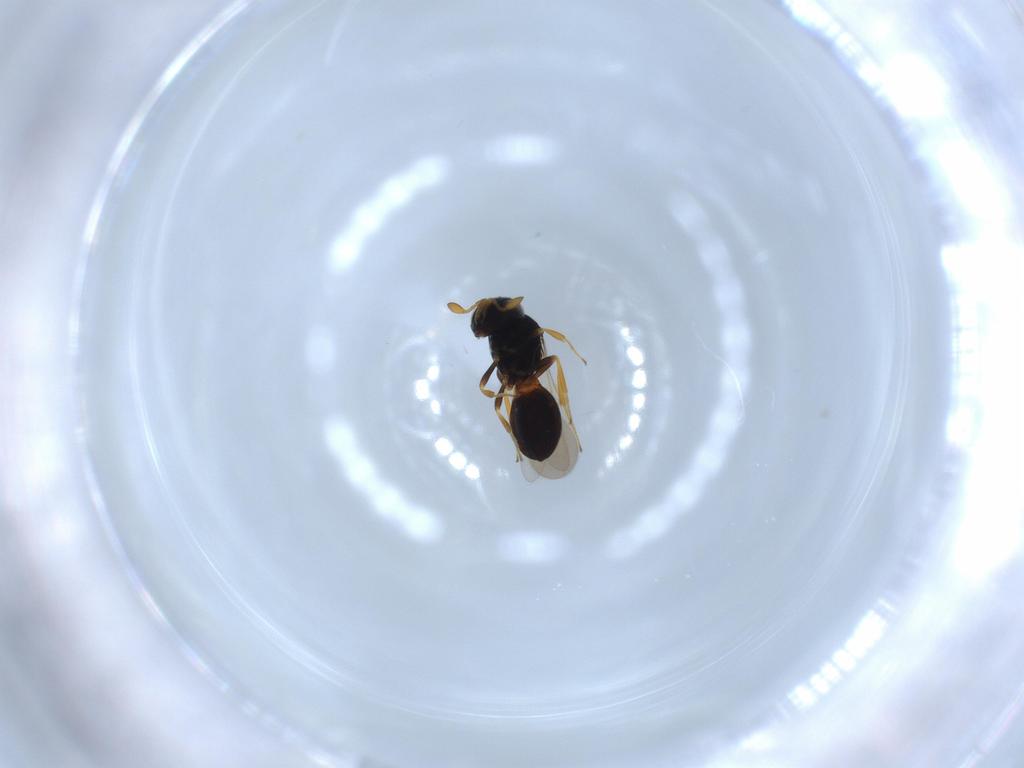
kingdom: Animalia
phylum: Arthropoda
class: Insecta
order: Hymenoptera
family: Scelionidae
